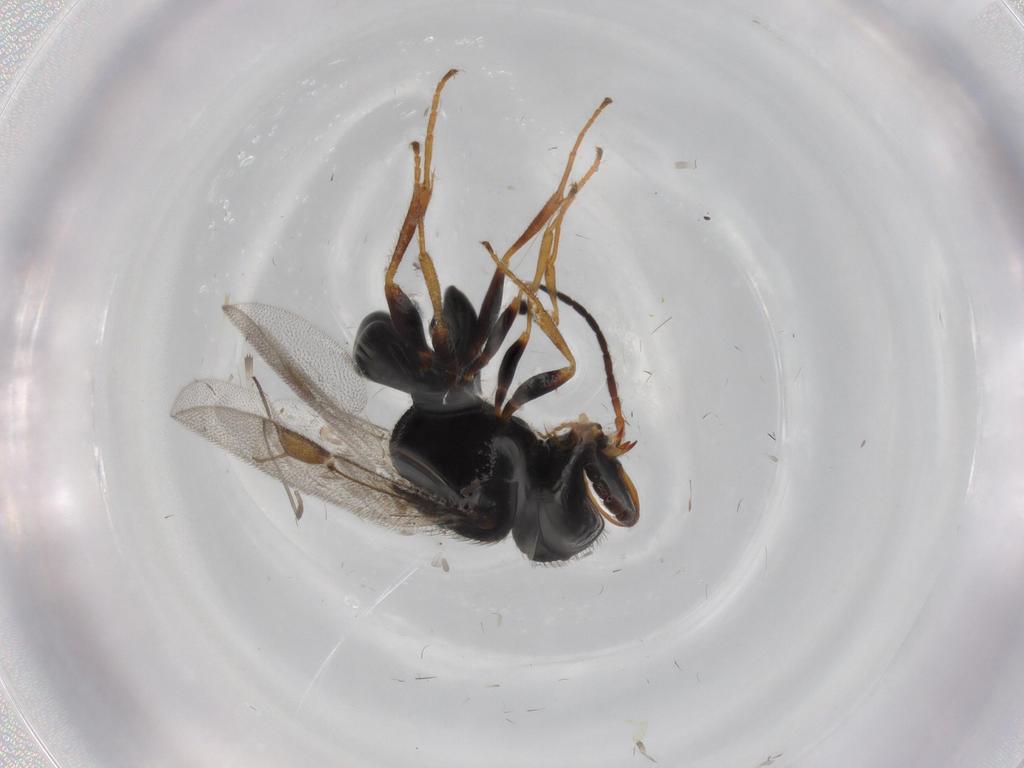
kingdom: Animalia
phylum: Arthropoda
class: Insecta
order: Hymenoptera
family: Dryinidae
